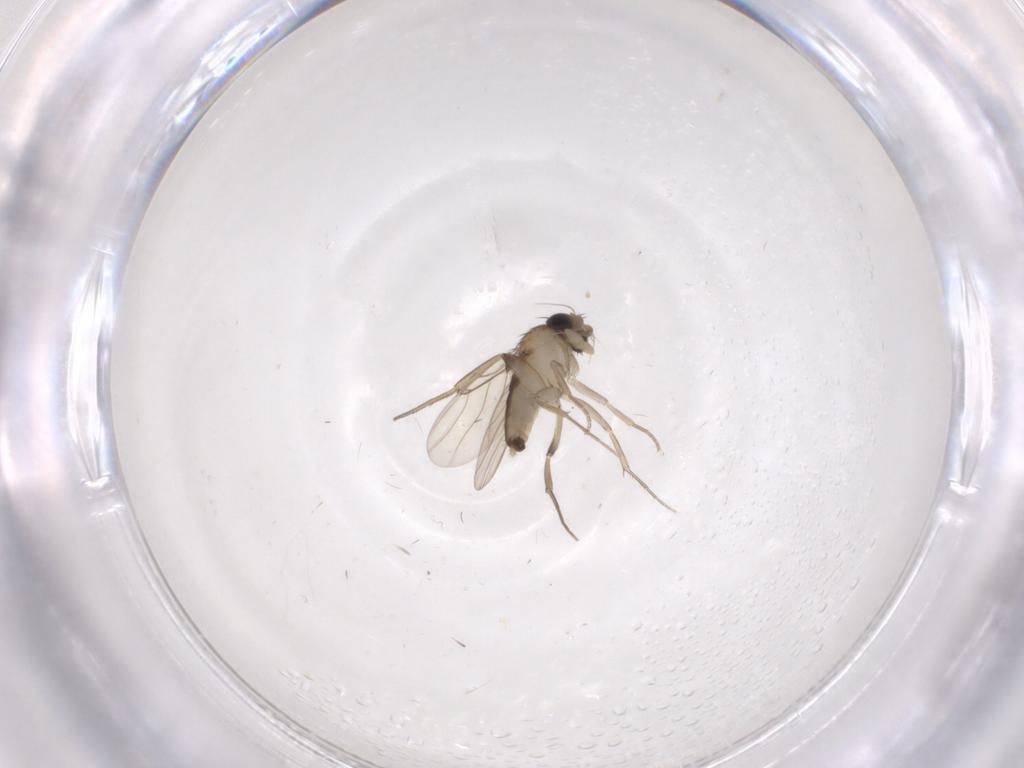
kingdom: Animalia
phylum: Arthropoda
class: Insecta
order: Diptera
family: Phoridae
